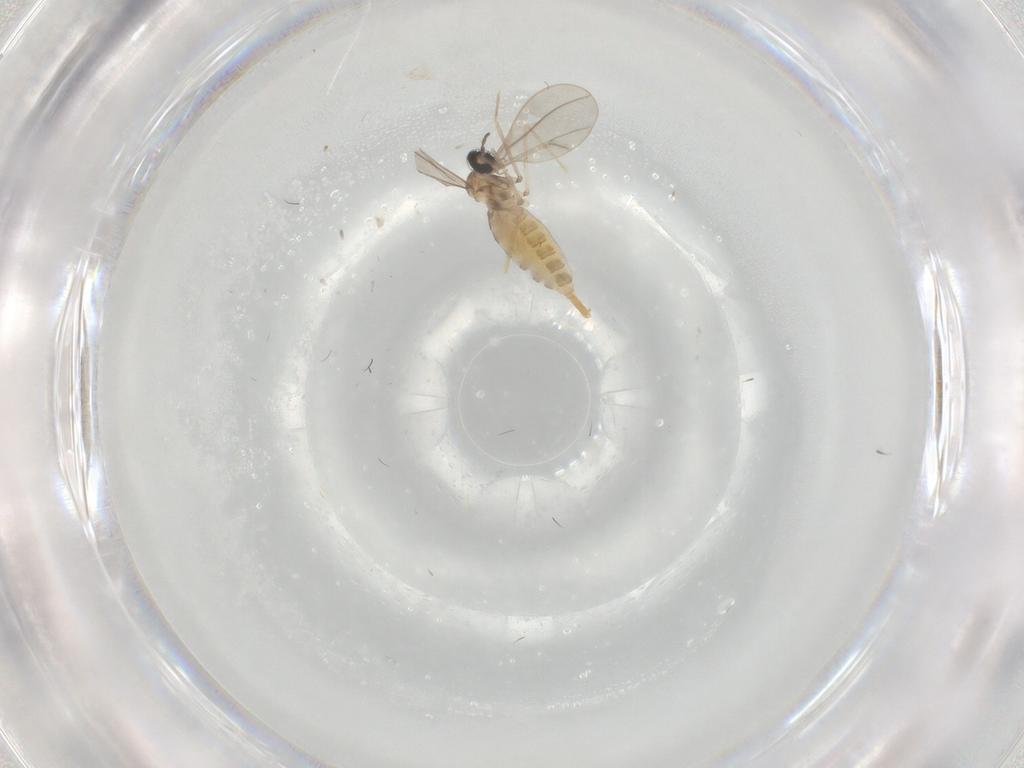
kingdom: Animalia
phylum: Arthropoda
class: Insecta
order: Diptera
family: Cecidomyiidae
